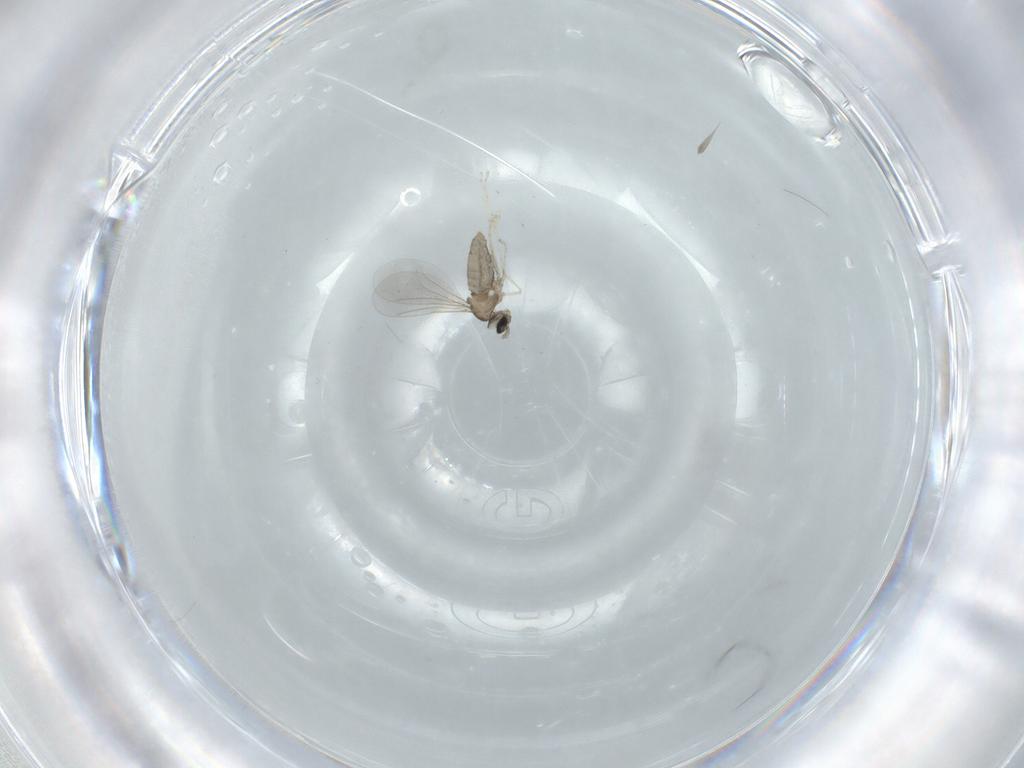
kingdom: Animalia
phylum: Arthropoda
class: Insecta
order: Diptera
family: Cecidomyiidae
